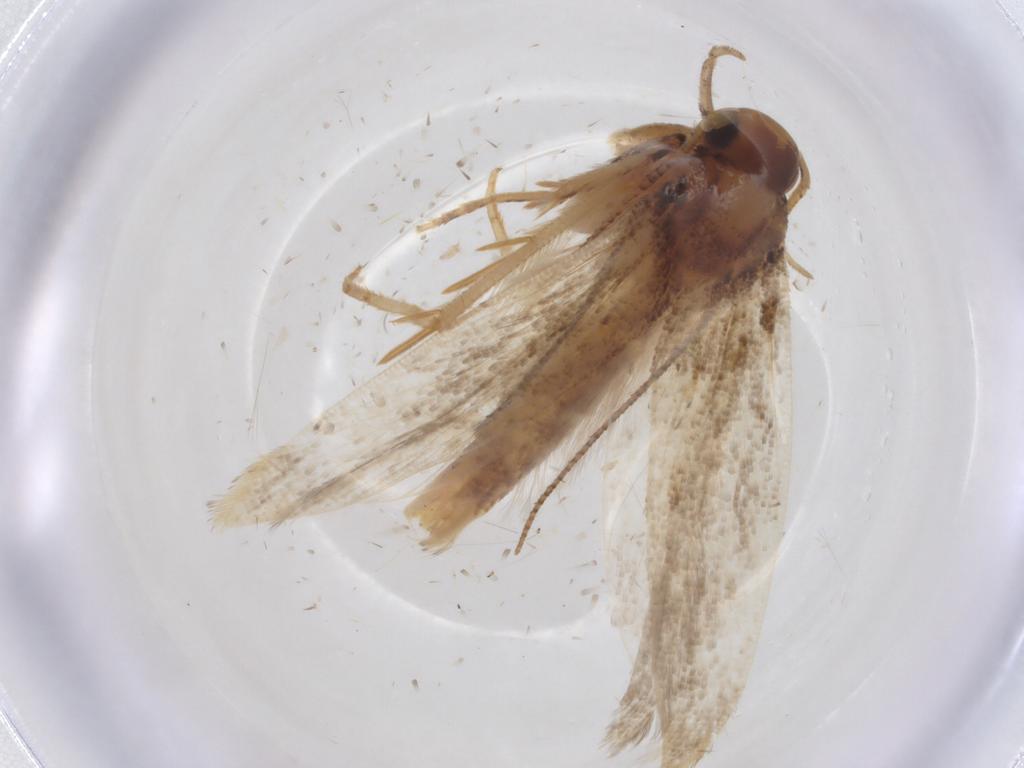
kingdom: Animalia
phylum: Arthropoda
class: Insecta
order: Lepidoptera
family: Gelechiidae
